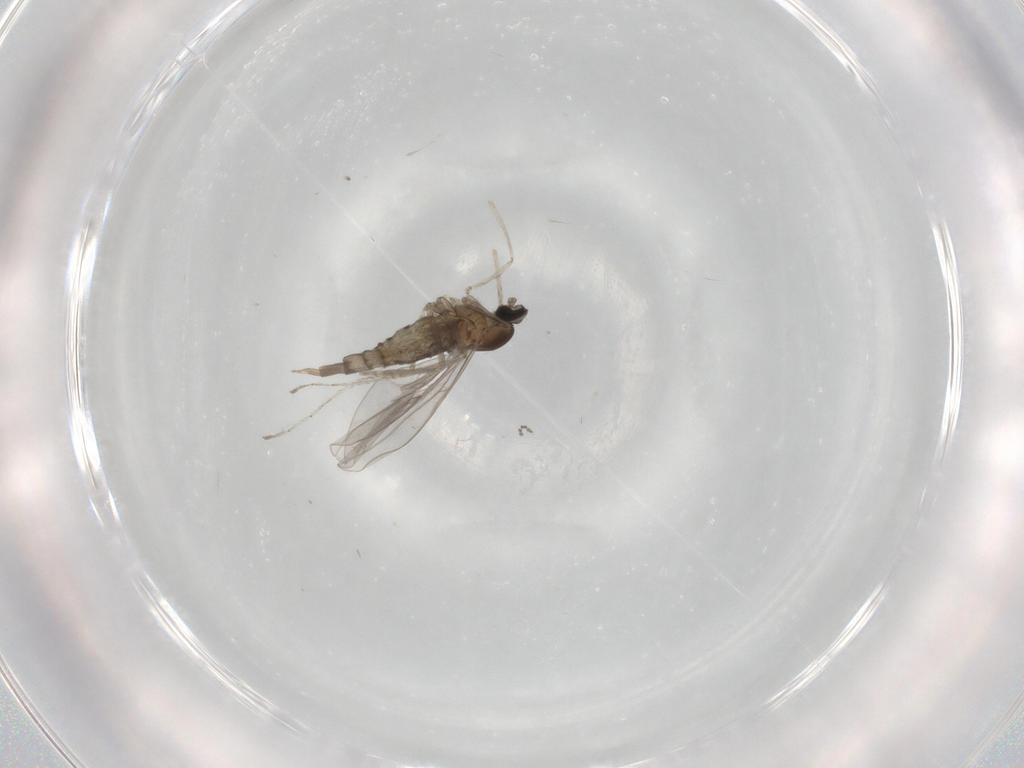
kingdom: Animalia
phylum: Arthropoda
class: Insecta
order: Diptera
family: Cecidomyiidae
